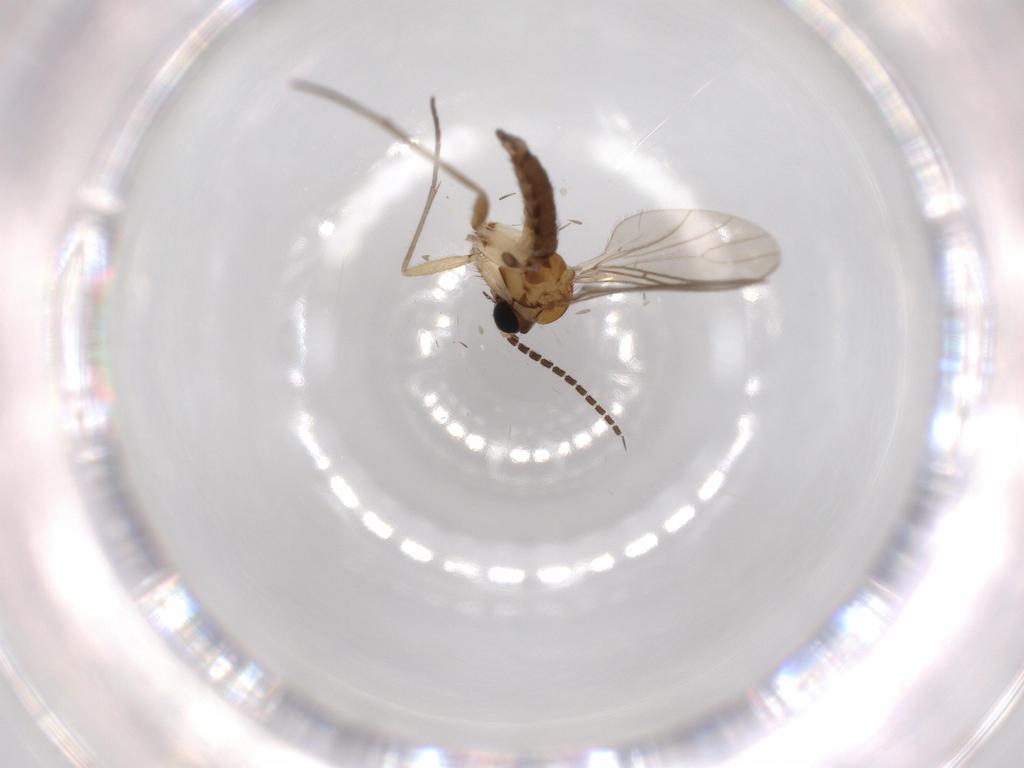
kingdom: Animalia
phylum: Arthropoda
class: Insecta
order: Diptera
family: Sciaridae
